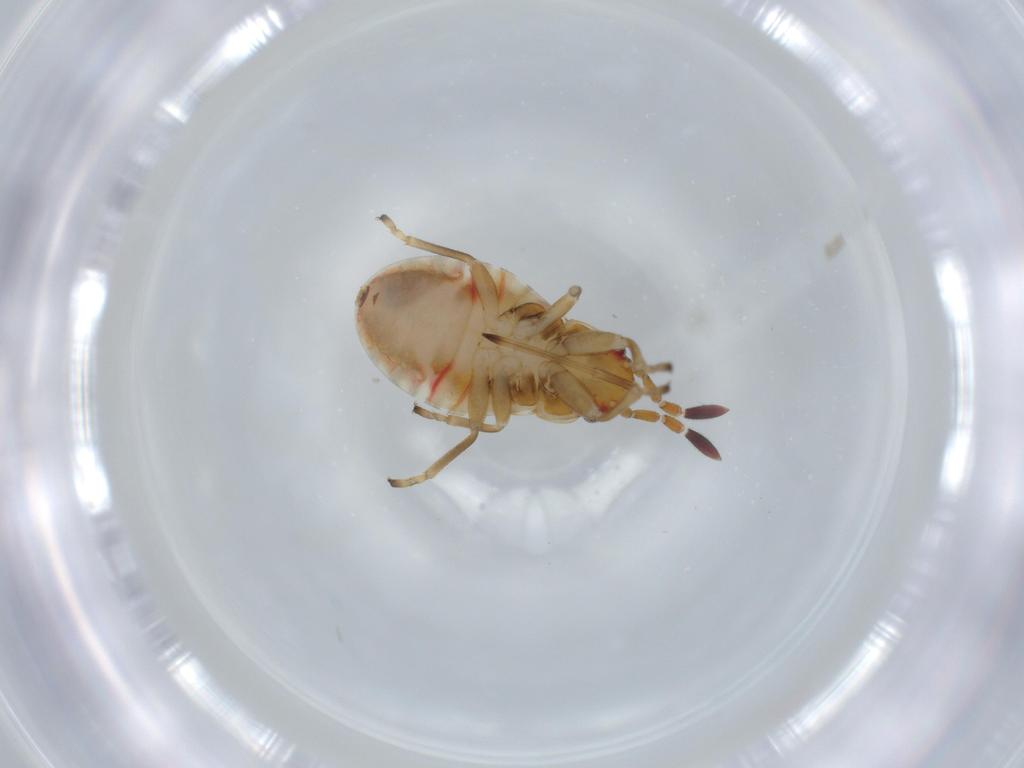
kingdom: Animalia
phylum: Arthropoda
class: Insecta
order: Hemiptera
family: Rhyparochromidae
